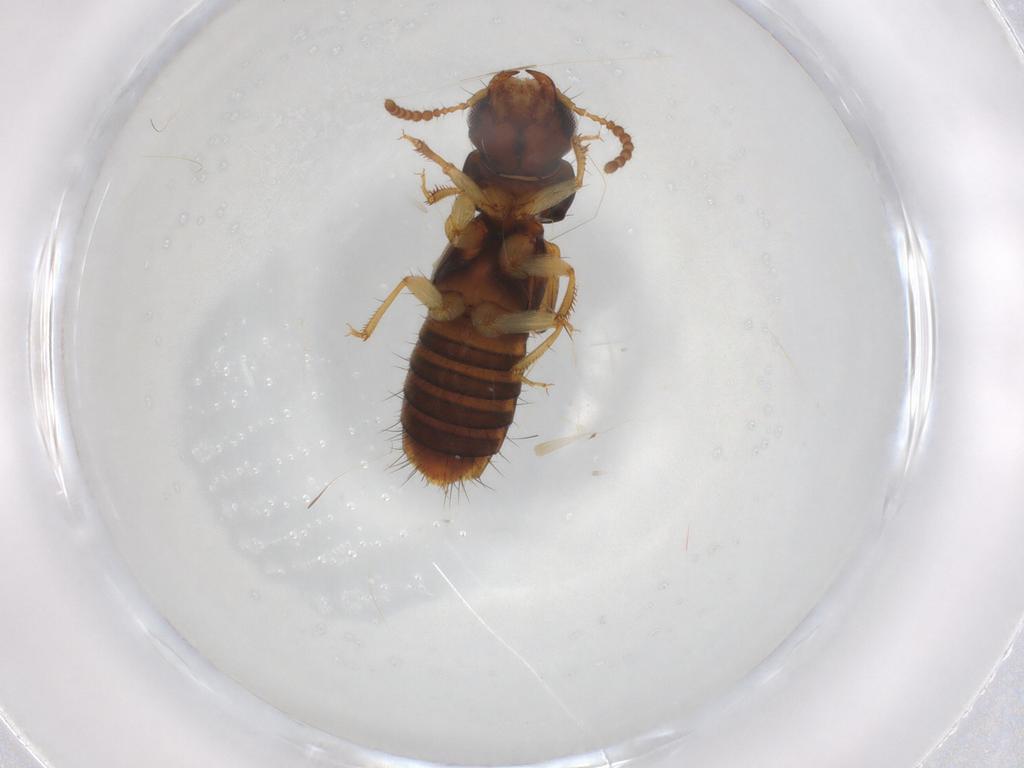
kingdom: Animalia
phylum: Arthropoda
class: Insecta
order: Coleoptera
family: Staphylinidae
